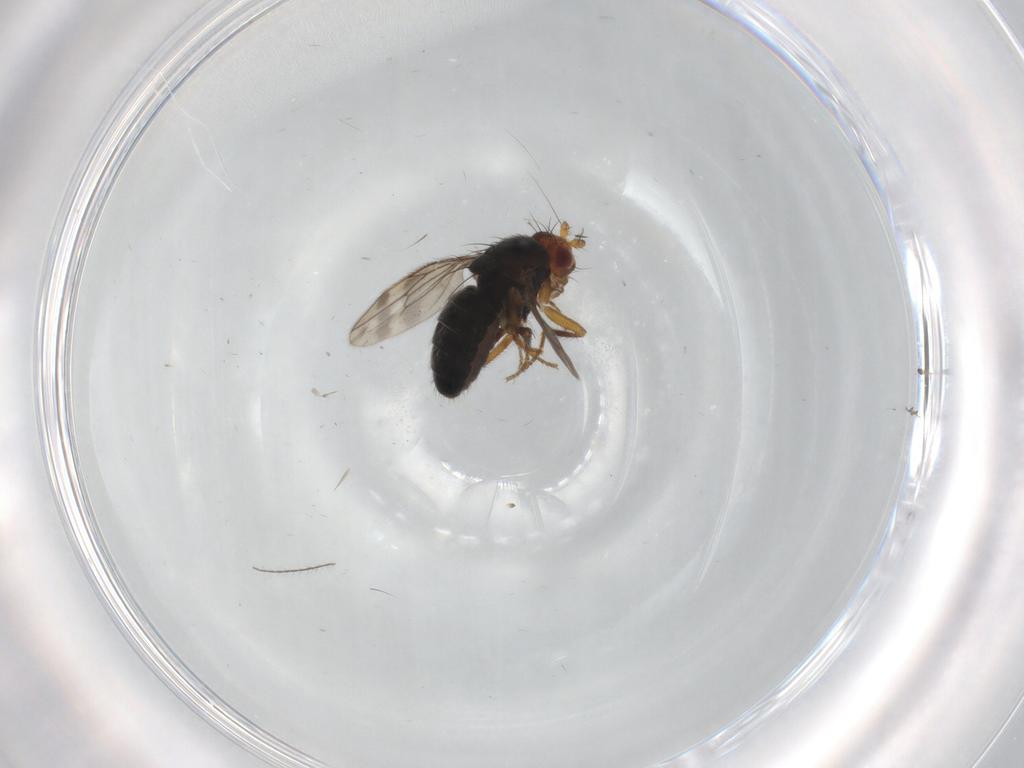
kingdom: Animalia
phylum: Arthropoda
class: Insecta
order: Diptera
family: Sphaeroceridae
